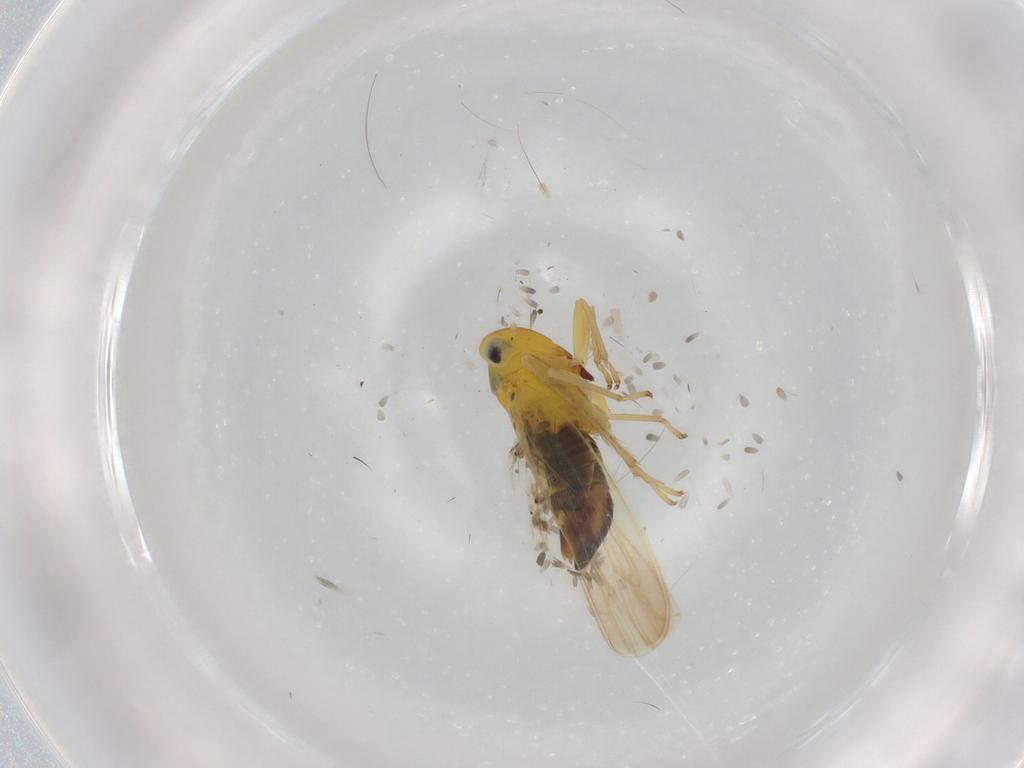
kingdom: Animalia
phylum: Arthropoda
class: Insecta
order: Hemiptera
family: Cicadellidae
